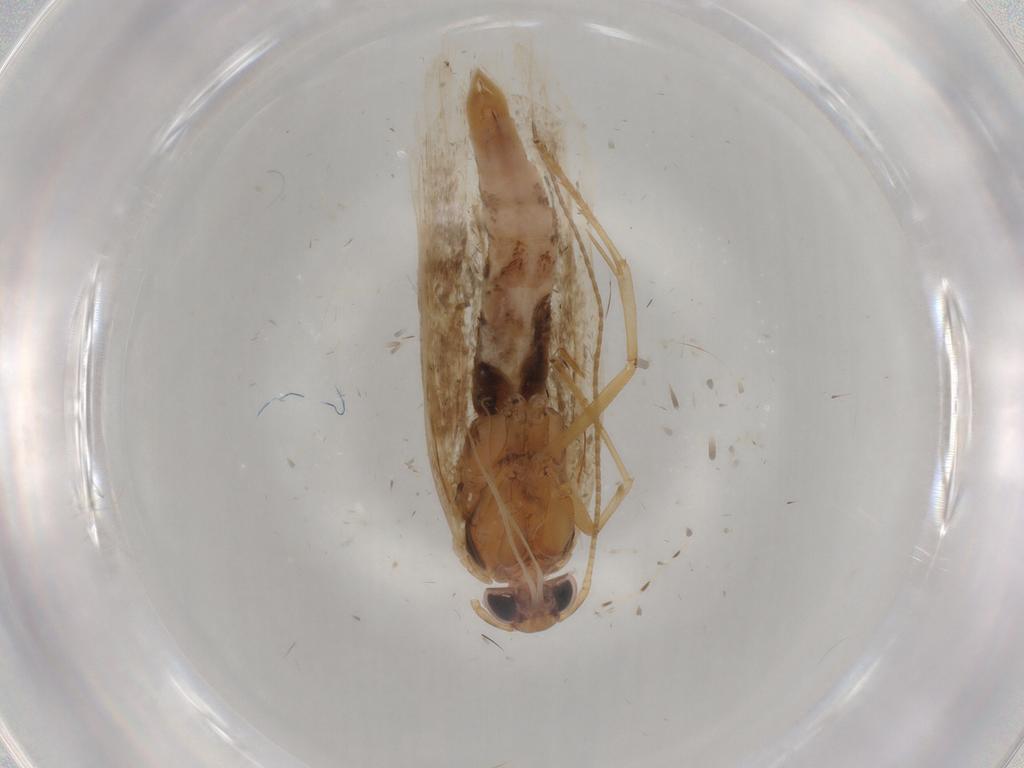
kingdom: Animalia
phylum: Arthropoda
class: Insecta
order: Lepidoptera
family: Gelechiidae
